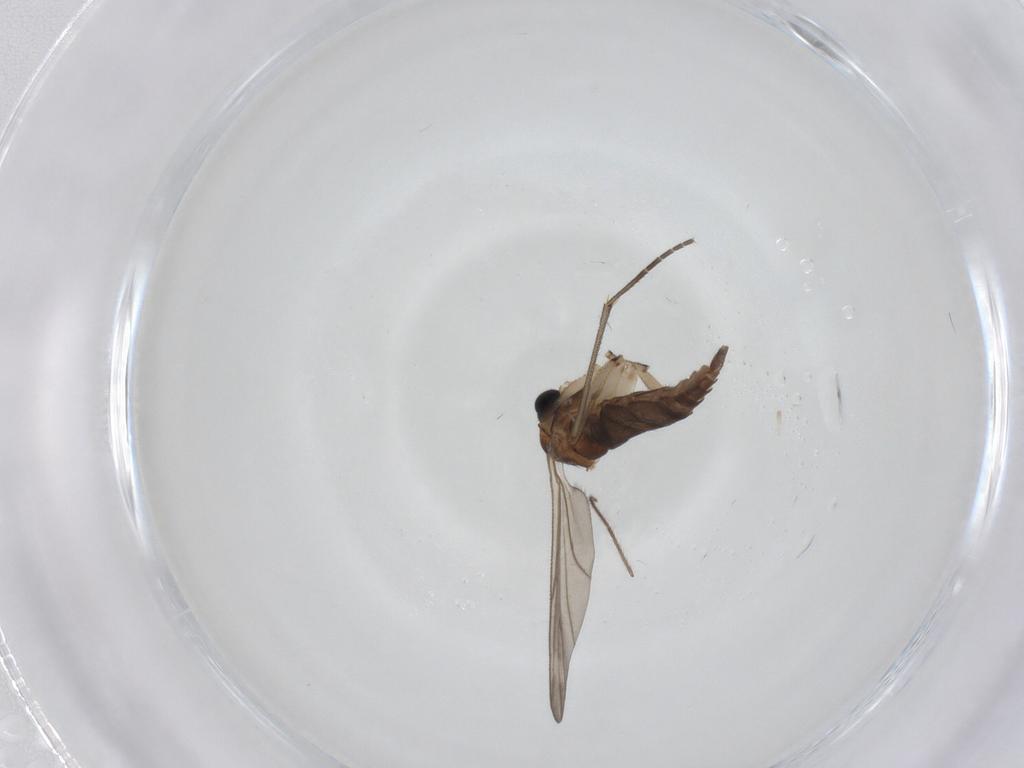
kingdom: Animalia
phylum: Arthropoda
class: Insecta
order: Diptera
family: Sciaridae
